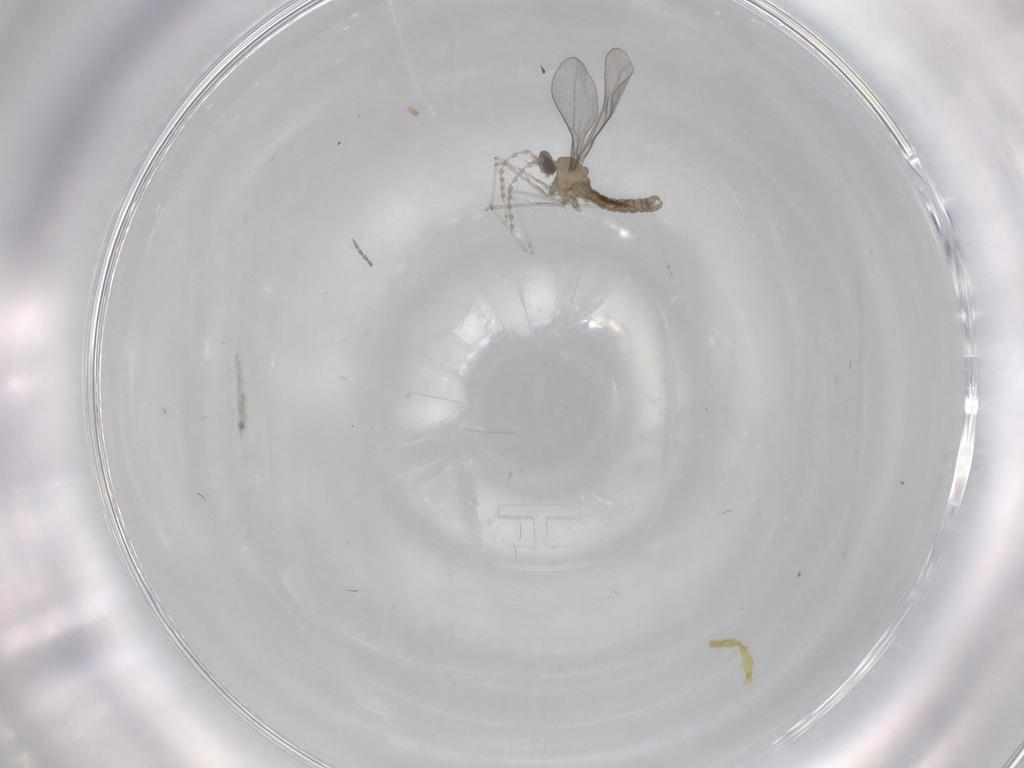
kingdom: Animalia
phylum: Arthropoda
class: Insecta
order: Diptera
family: Cecidomyiidae
